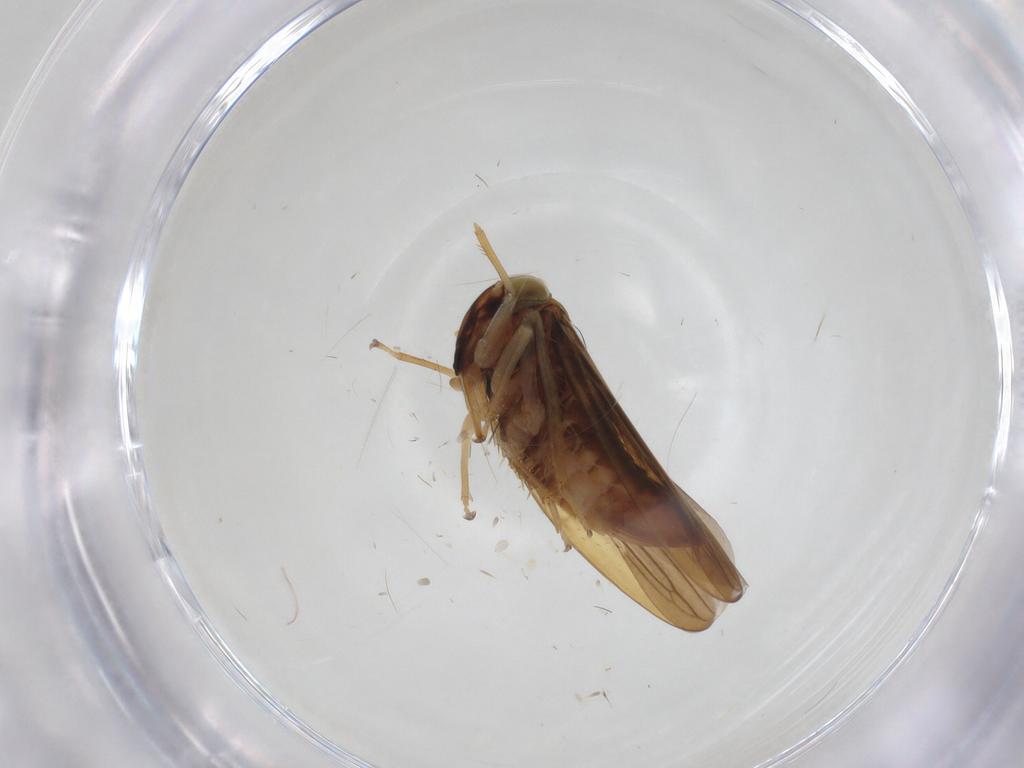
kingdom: Animalia
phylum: Arthropoda
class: Insecta
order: Hemiptera
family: Cicadellidae
